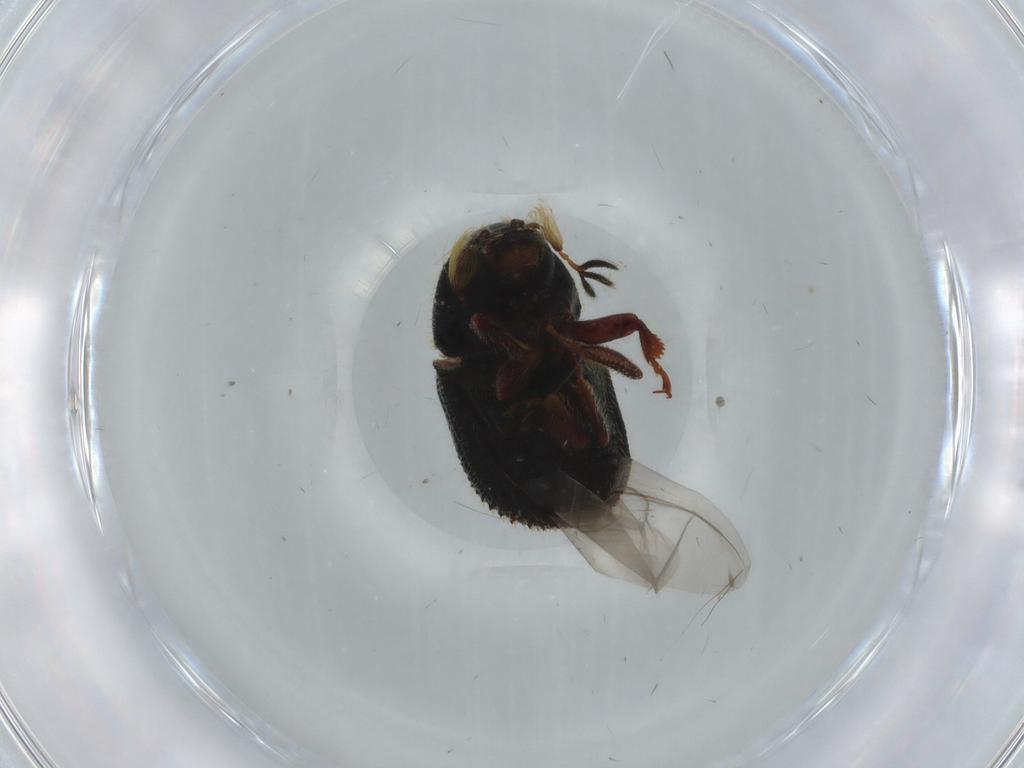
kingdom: Animalia
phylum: Arthropoda
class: Insecta
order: Coleoptera
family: Curculionidae
